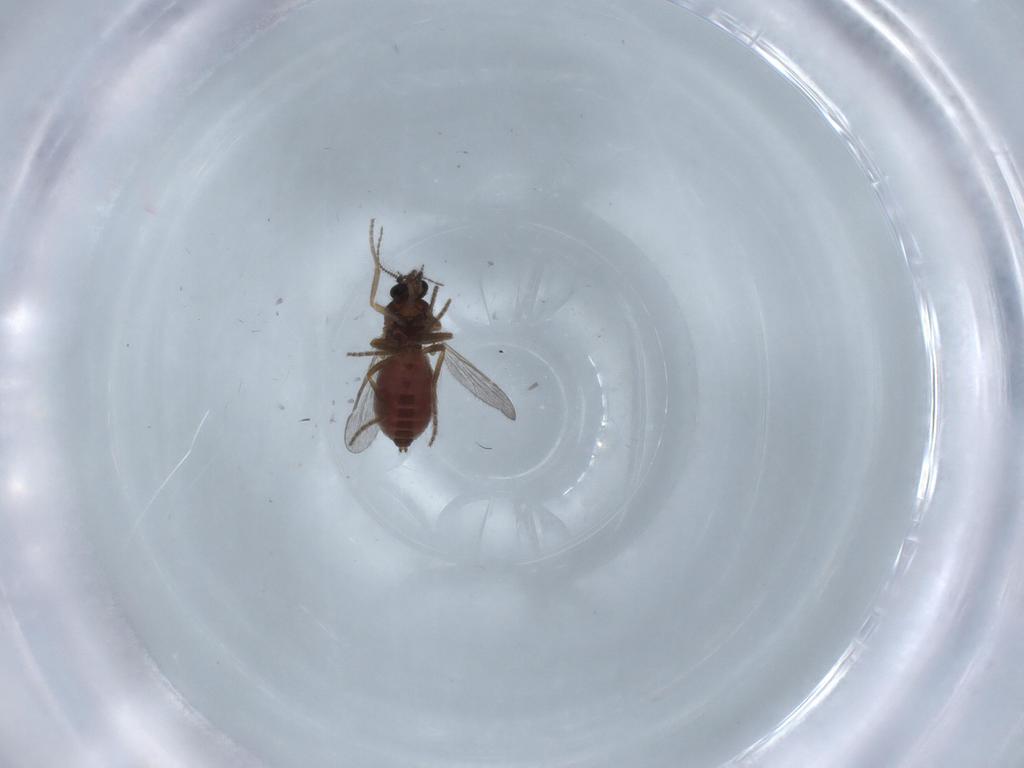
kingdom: Animalia
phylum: Arthropoda
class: Insecta
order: Diptera
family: Ceratopogonidae
